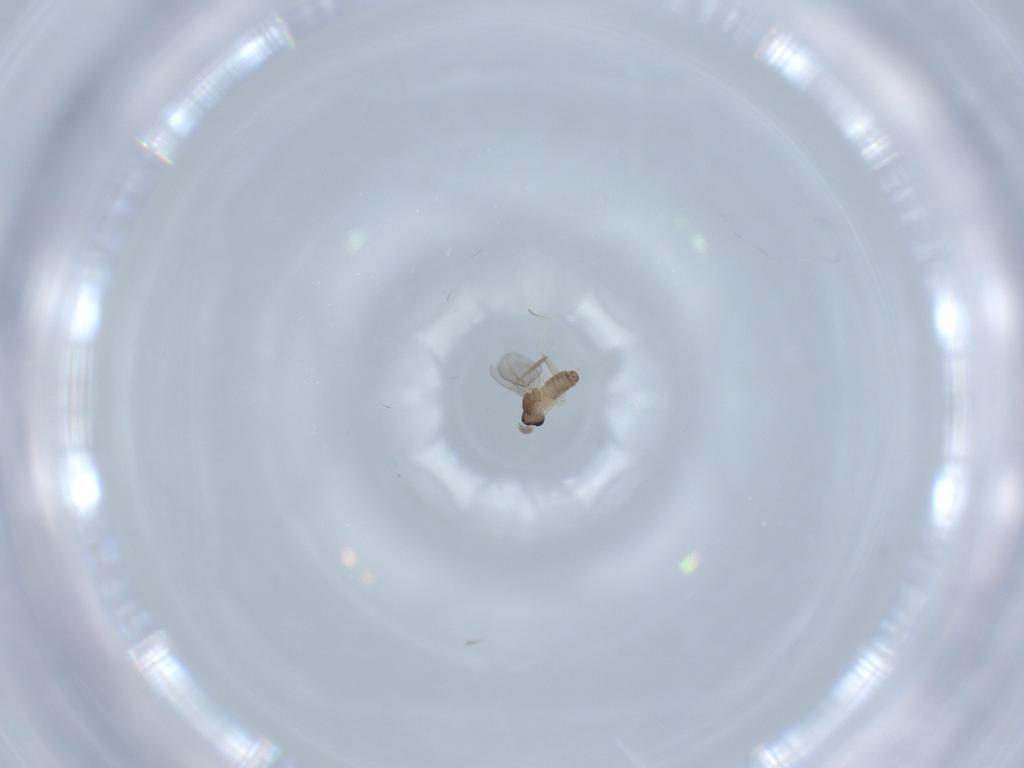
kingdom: Animalia
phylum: Arthropoda
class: Insecta
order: Diptera
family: Cecidomyiidae
